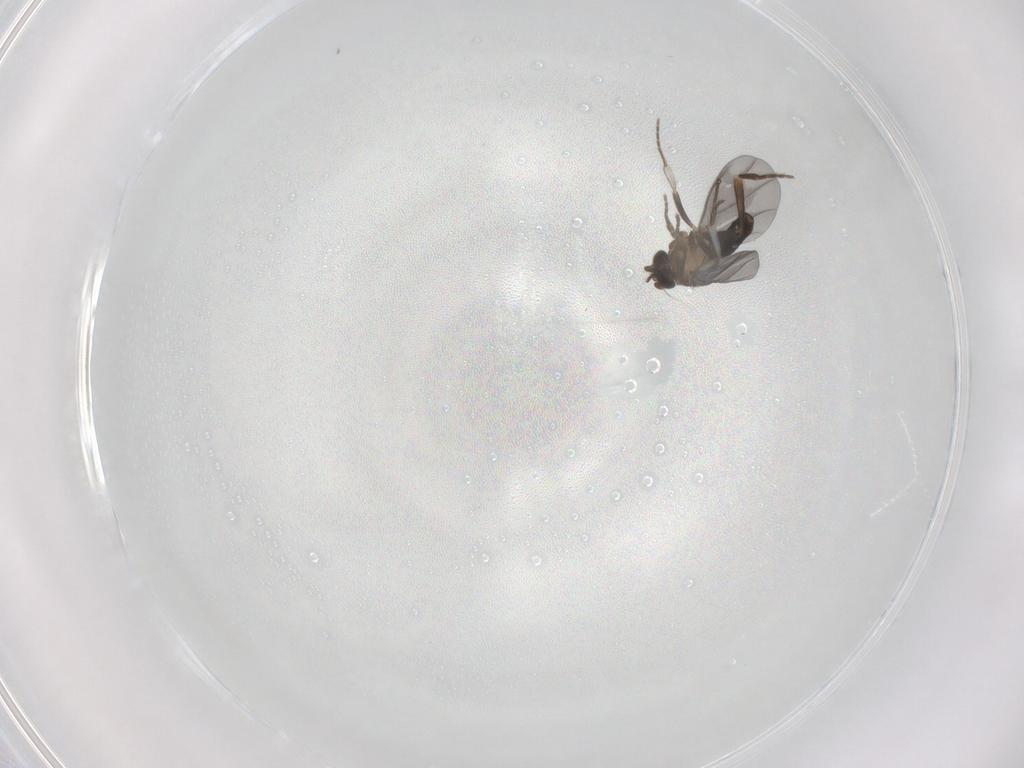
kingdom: Animalia
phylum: Arthropoda
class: Insecta
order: Diptera
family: Phoridae
